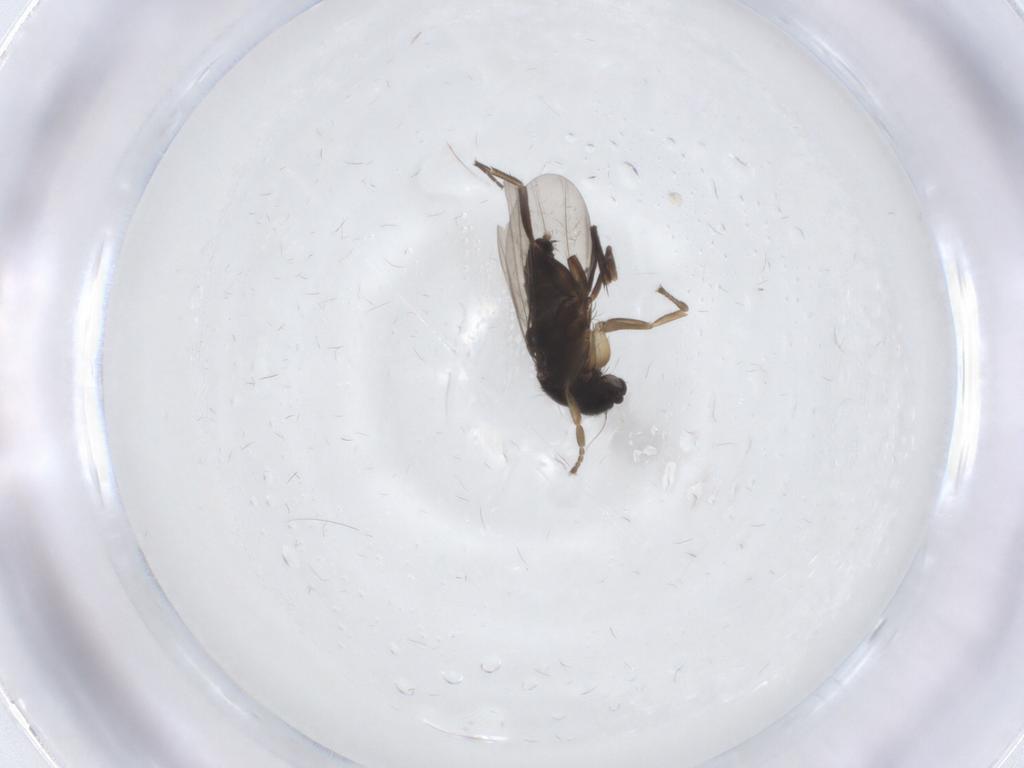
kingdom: Animalia
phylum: Arthropoda
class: Insecta
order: Diptera
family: Phoridae
